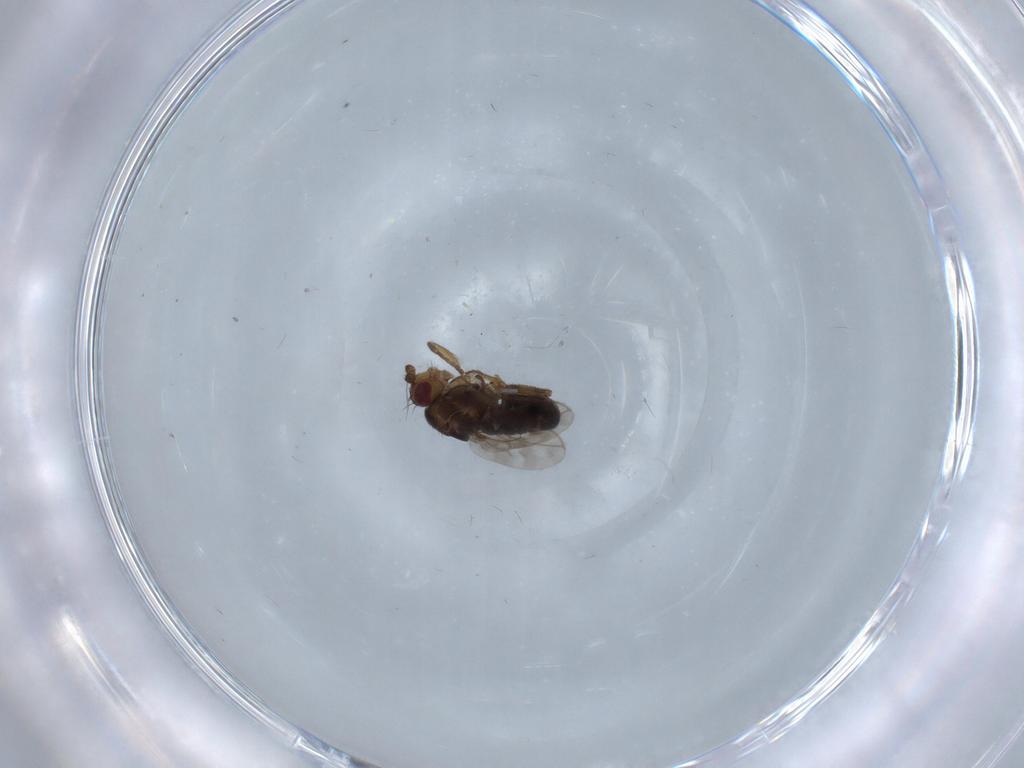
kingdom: Animalia
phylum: Arthropoda
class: Insecta
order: Diptera
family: Sphaeroceridae
